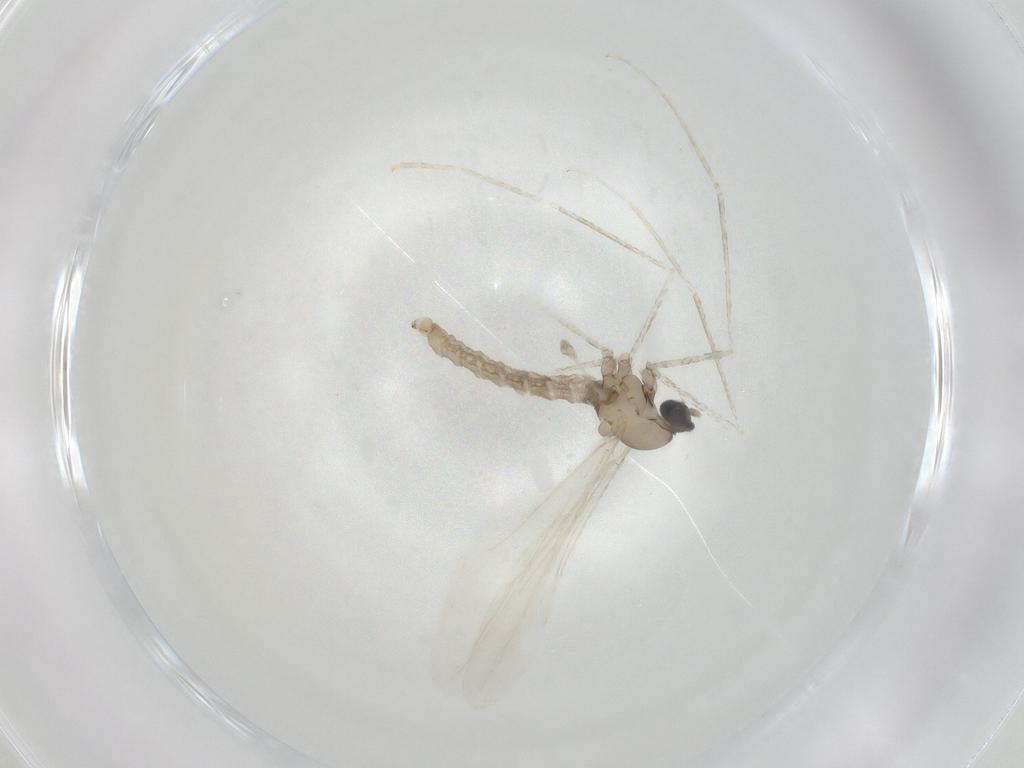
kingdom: Animalia
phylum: Arthropoda
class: Insecta
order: Diptera
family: Cecidomyiidae
